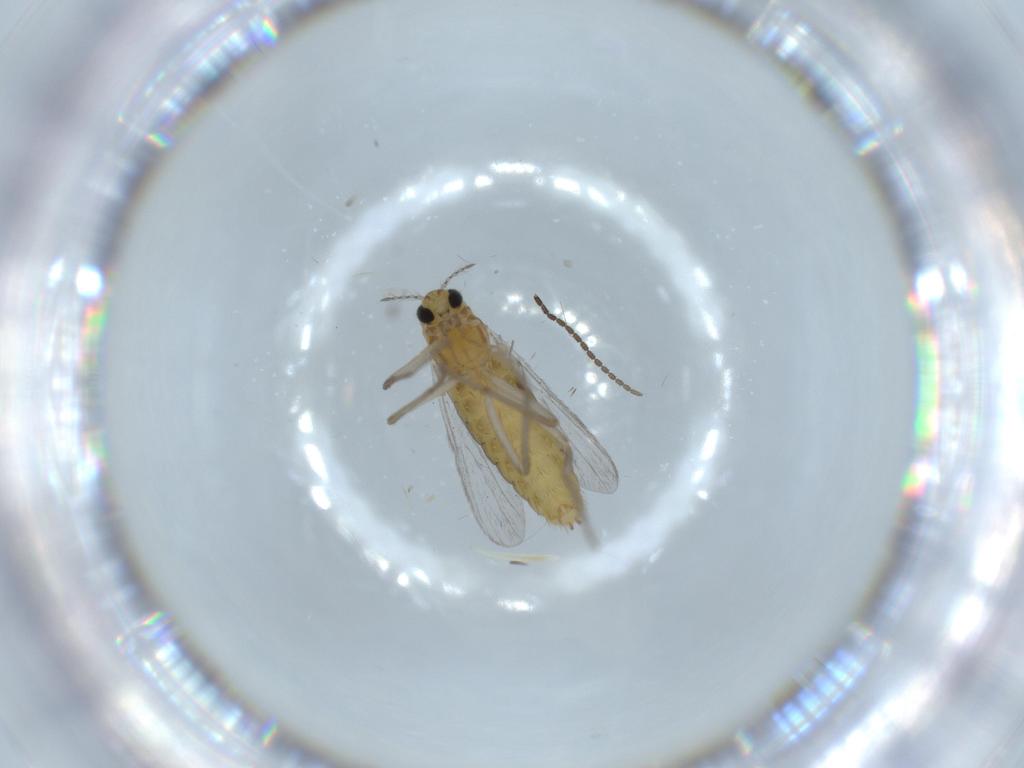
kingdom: Animalia
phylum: Arthropoda
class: Insecta
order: Diptera
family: Chironomidae
